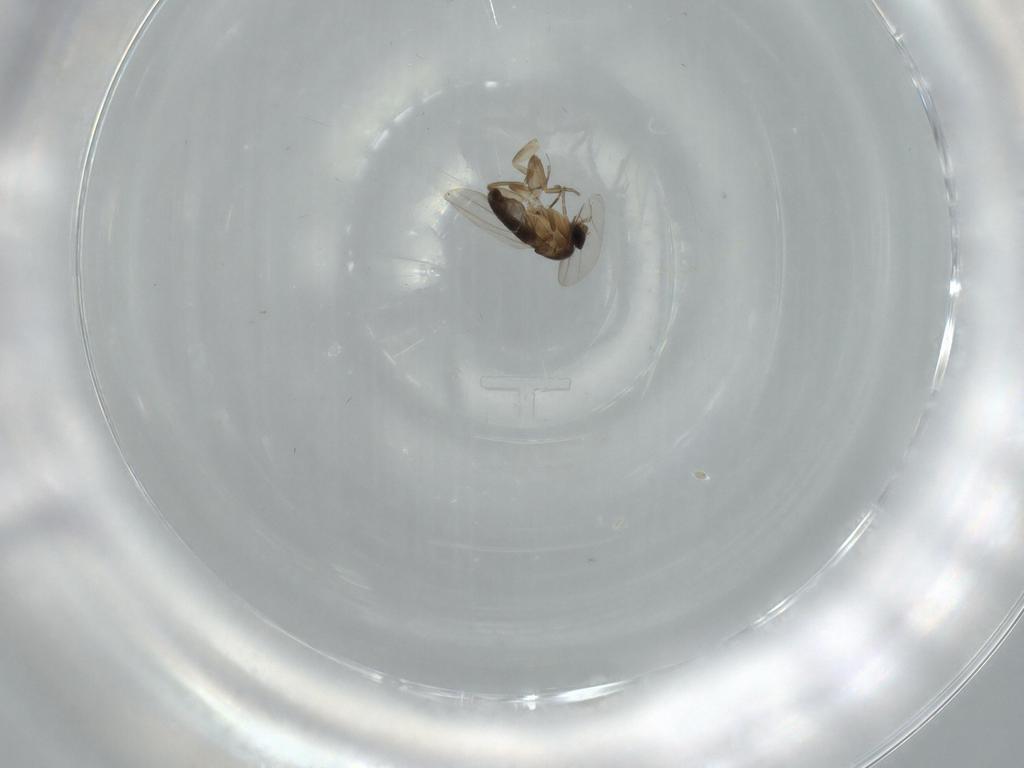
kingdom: Animalia
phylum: Arthropoda
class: Insecta
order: Diptera
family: Phoridae
